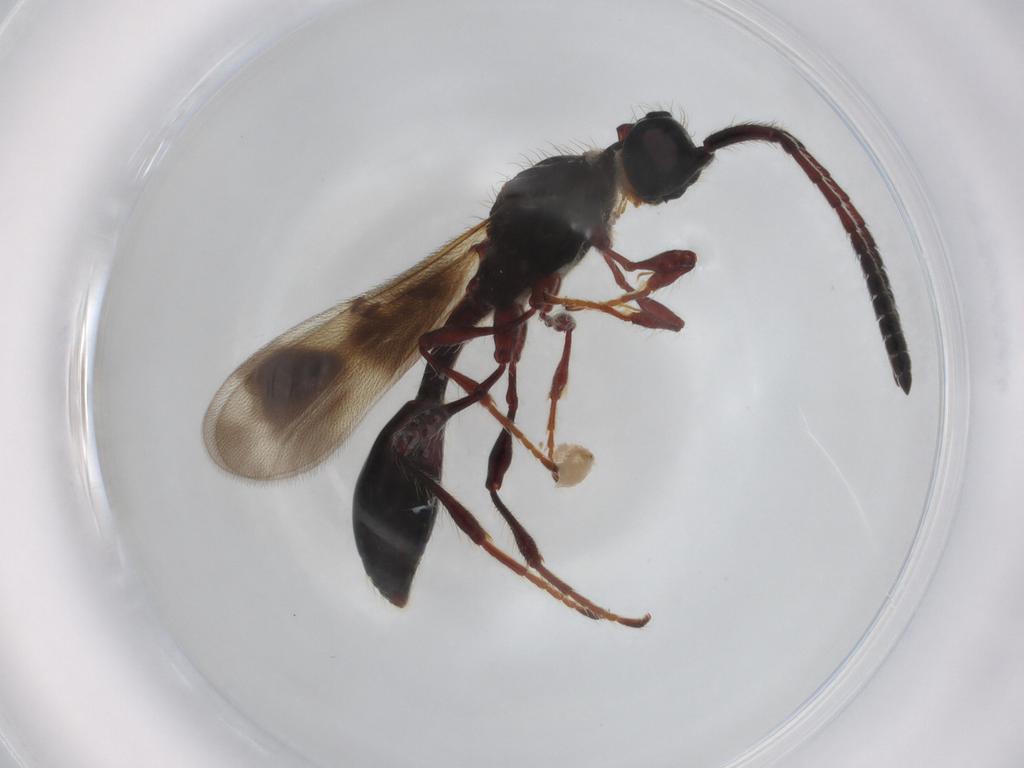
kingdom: Animalia
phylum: Arthropoda
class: Insecta
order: Hymenoptera
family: Diapriidae
